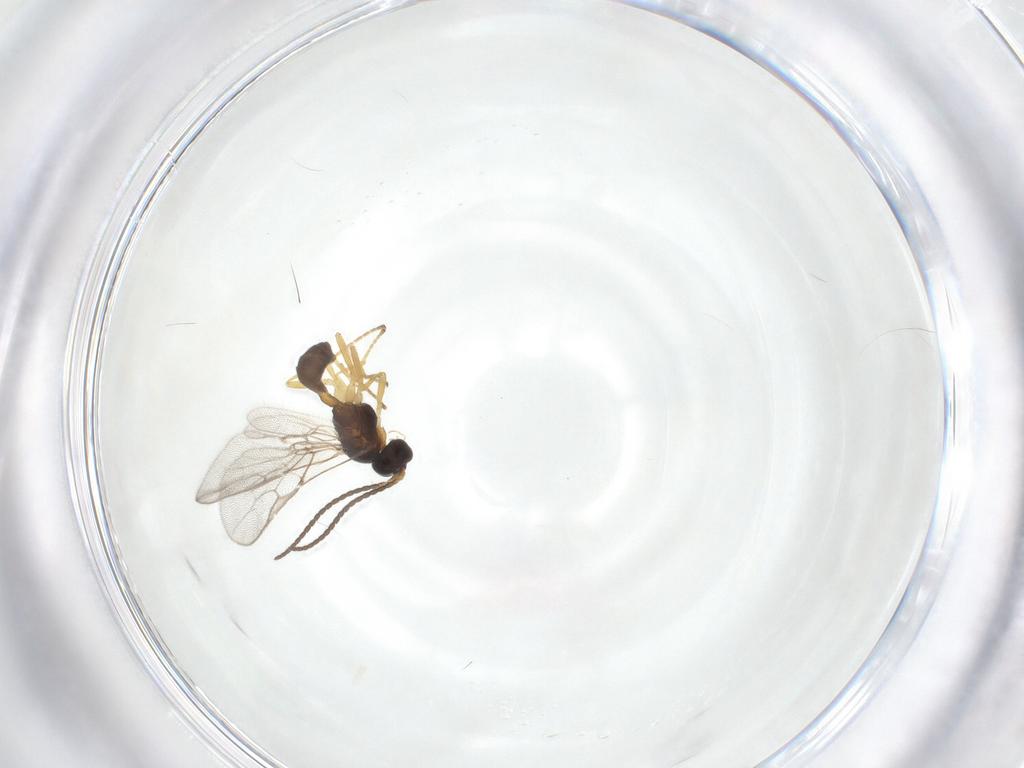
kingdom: Animalia
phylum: Arthropoda
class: Insecta
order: Hymenoptera
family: Braconidae
